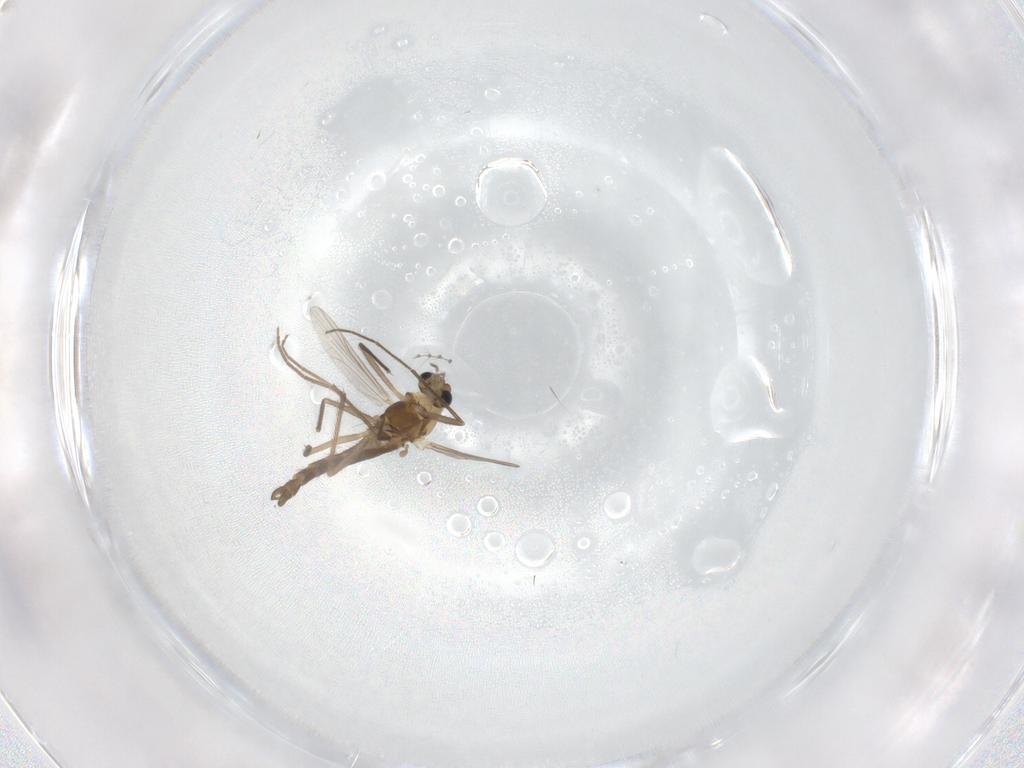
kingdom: Animalia
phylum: Arthropoda
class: Insecta
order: Diptera
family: Chironomidae
